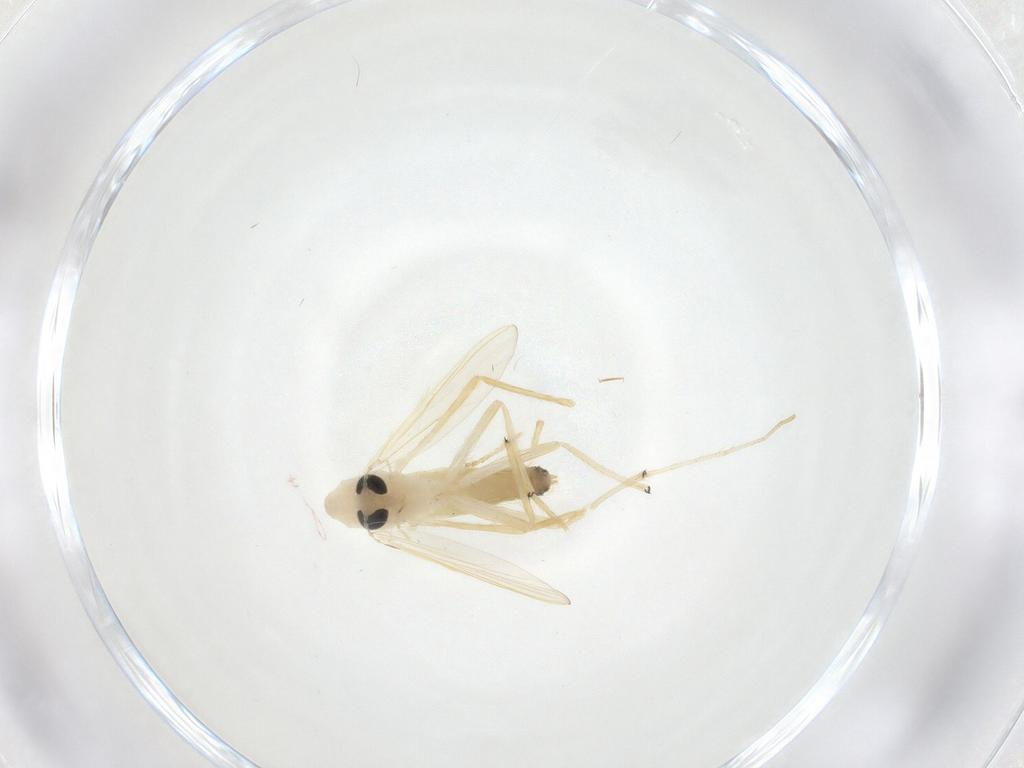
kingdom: Animalia
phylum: Arthropoda
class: Insecta
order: Diptera
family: Chironomidae
